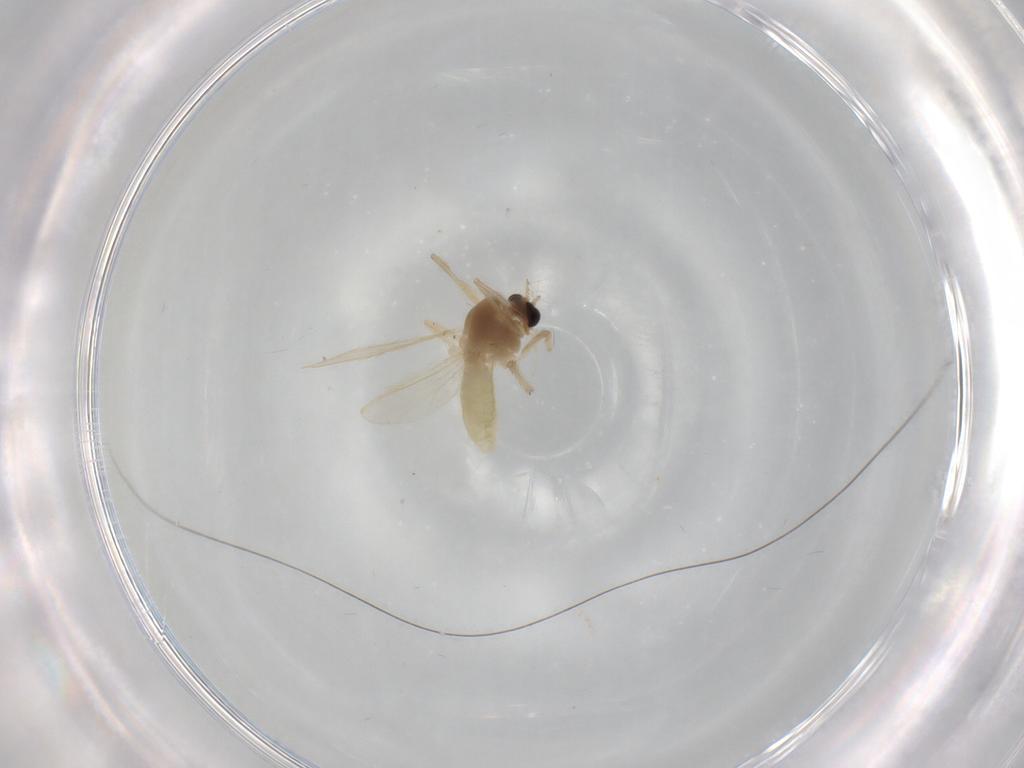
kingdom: Animalia
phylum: Arthropoda
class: Insecta
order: Diptera
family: Chironomidae
